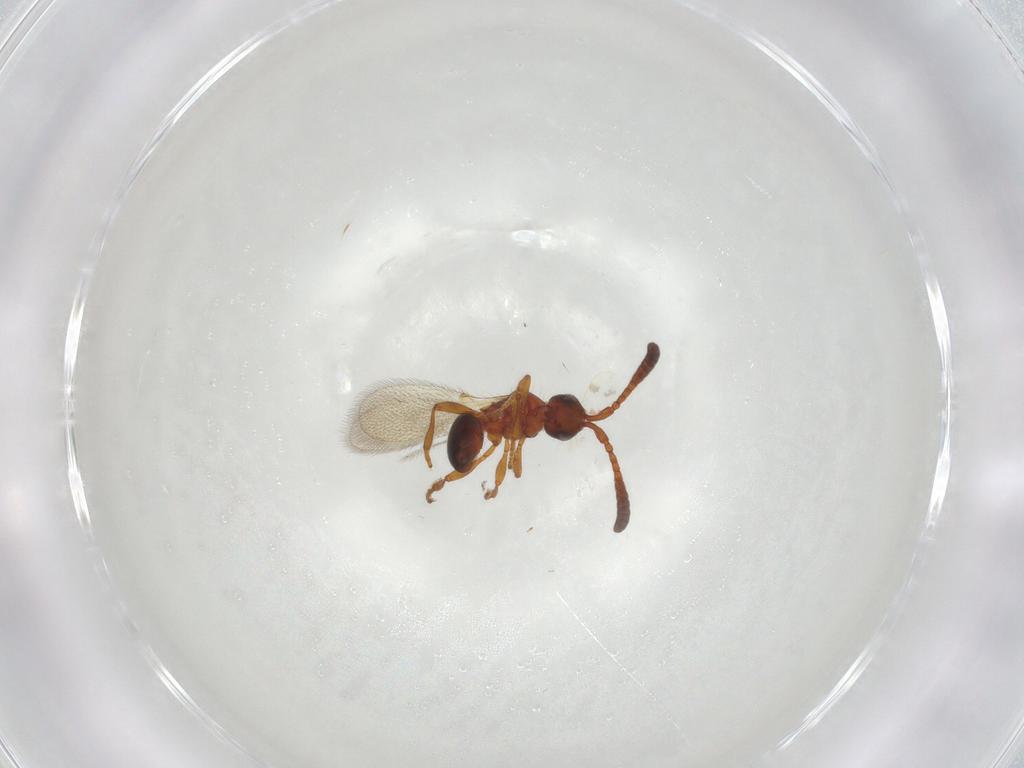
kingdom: Animalia
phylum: Arthropoda
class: Insecta
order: Hymenoptera
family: Diapriidae
